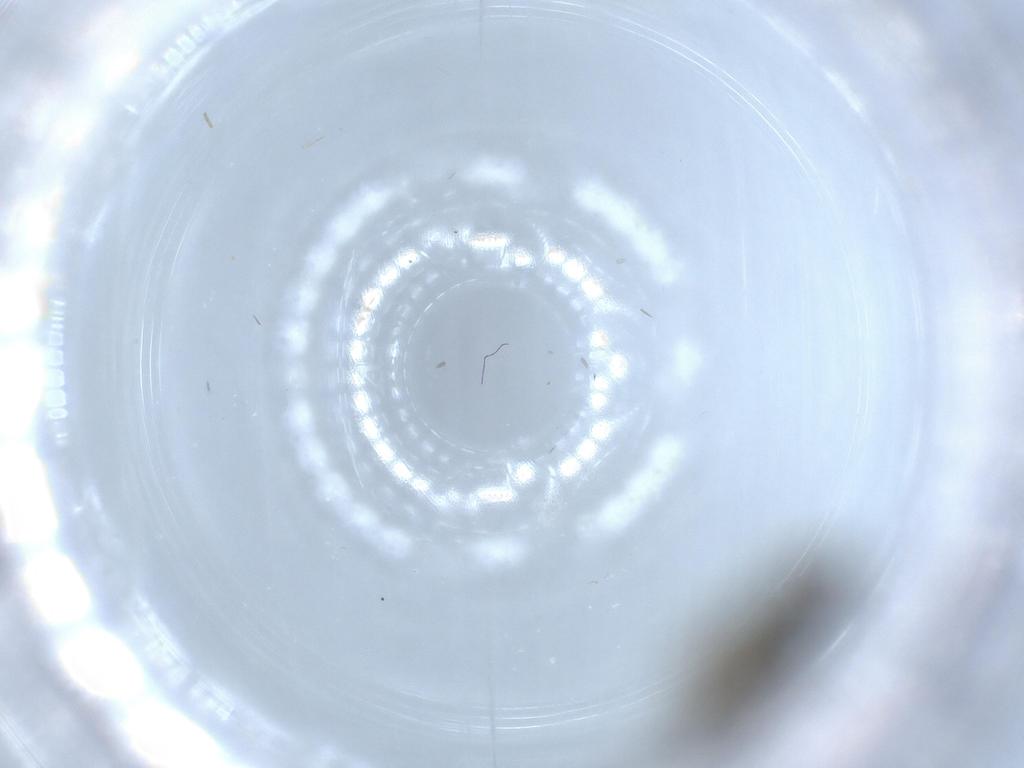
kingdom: Animalia
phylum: Arthropoda
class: Insecta
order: Diptera
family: Dolichopodidae
